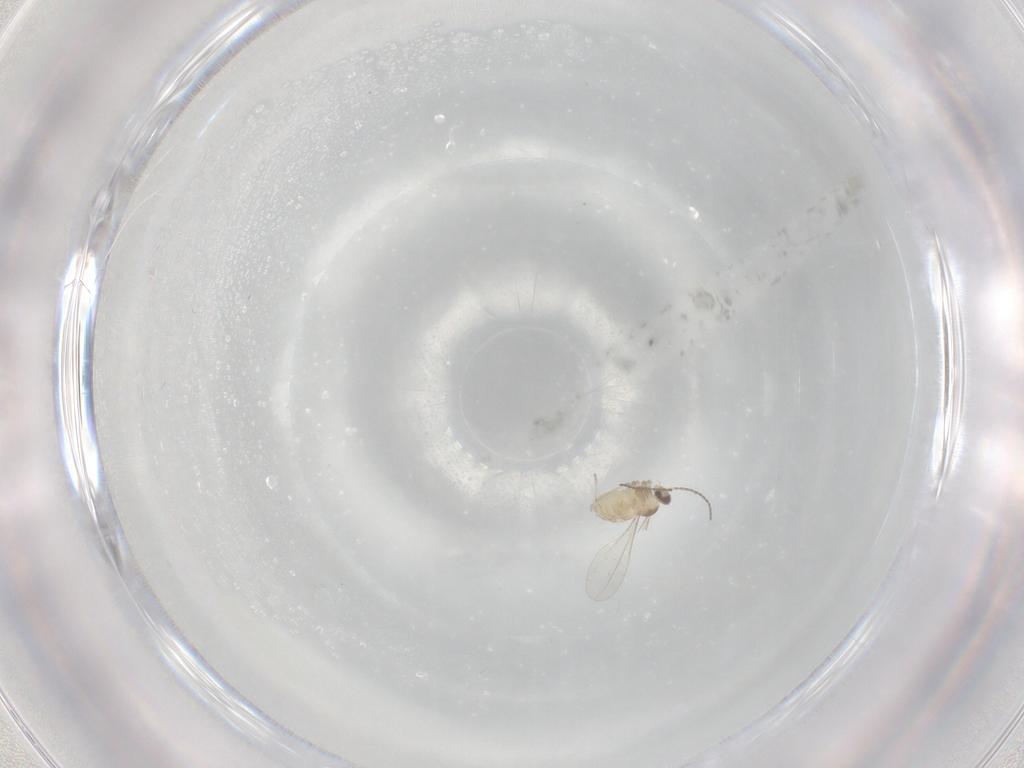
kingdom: Animalia
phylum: Arthropoda
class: Insecta
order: Diptera
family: Cecidomyiidae
